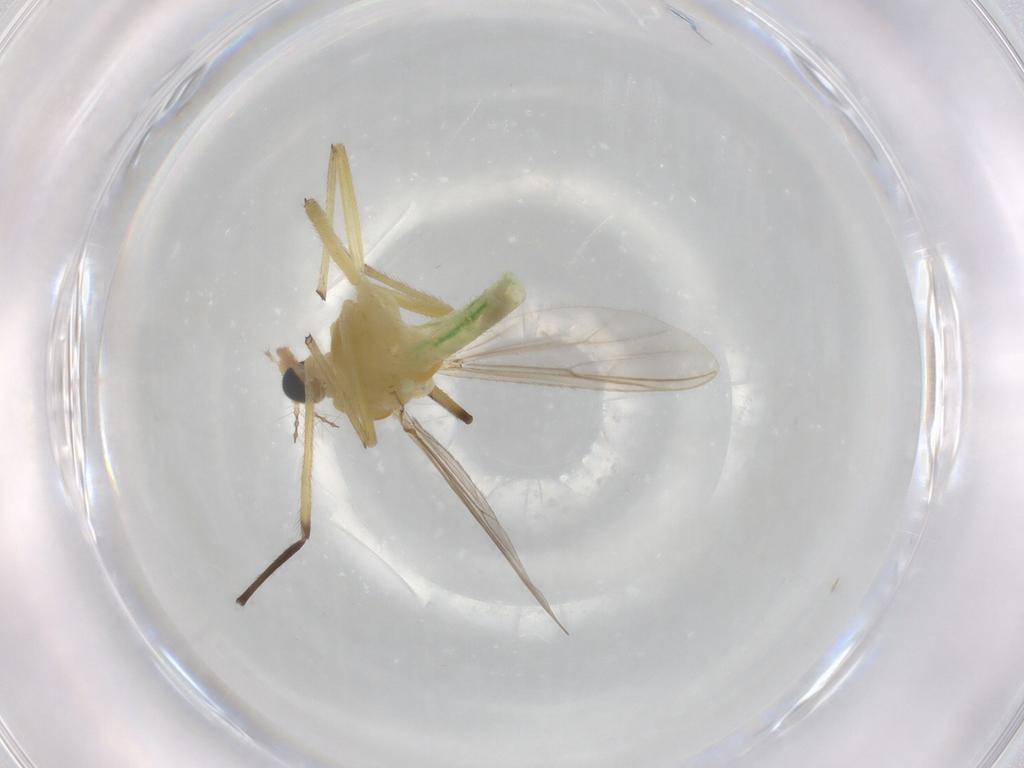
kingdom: Animalia
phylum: Arthropoda
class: Insecta
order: Diptera
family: Chironomidae
